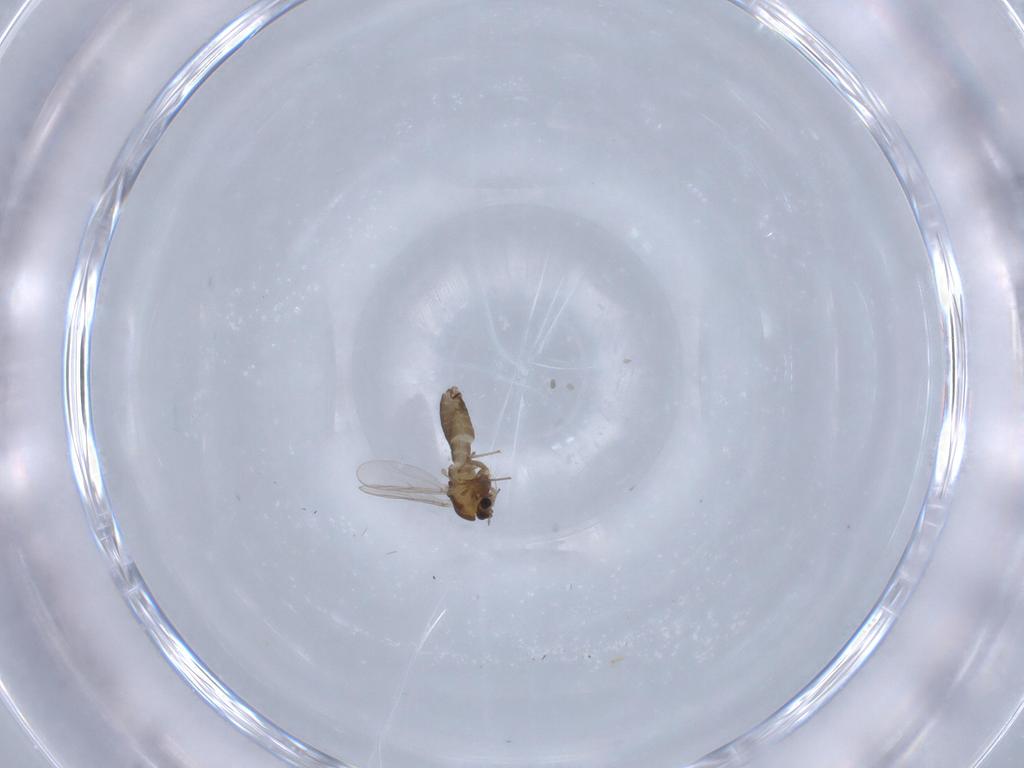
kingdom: Animalia
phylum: Arthropoda
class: Insecta
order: Diptera
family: Chironomidae
